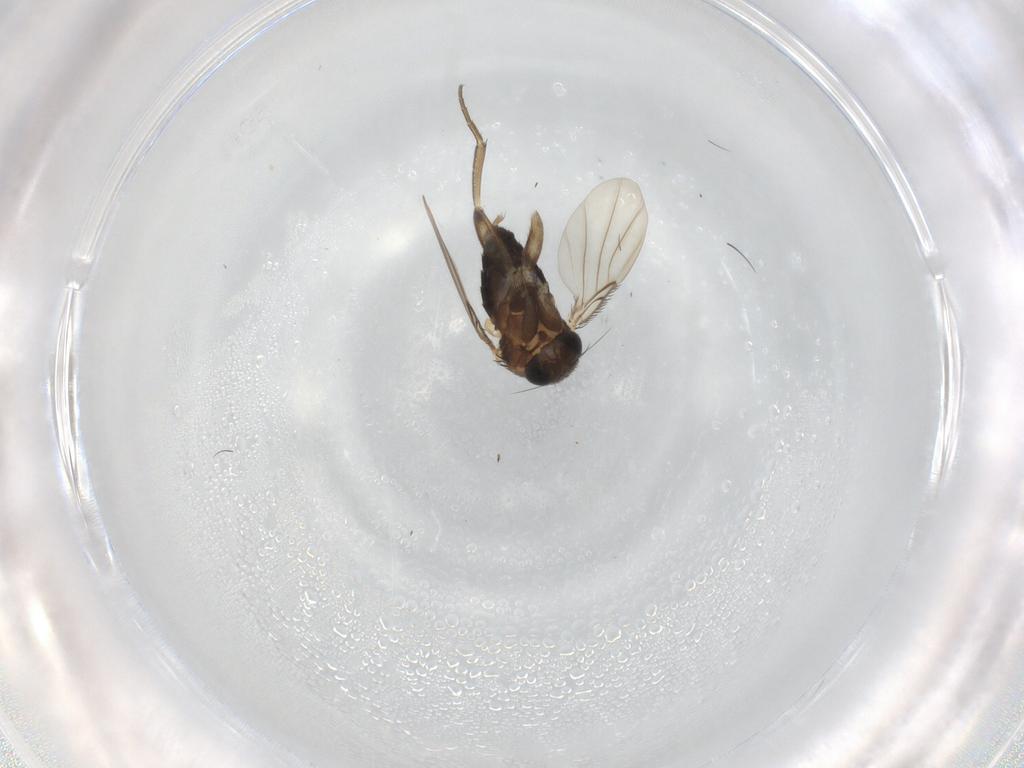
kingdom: Animalia
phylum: Arthropoda
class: Insecta
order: Diptera
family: Phoridae
